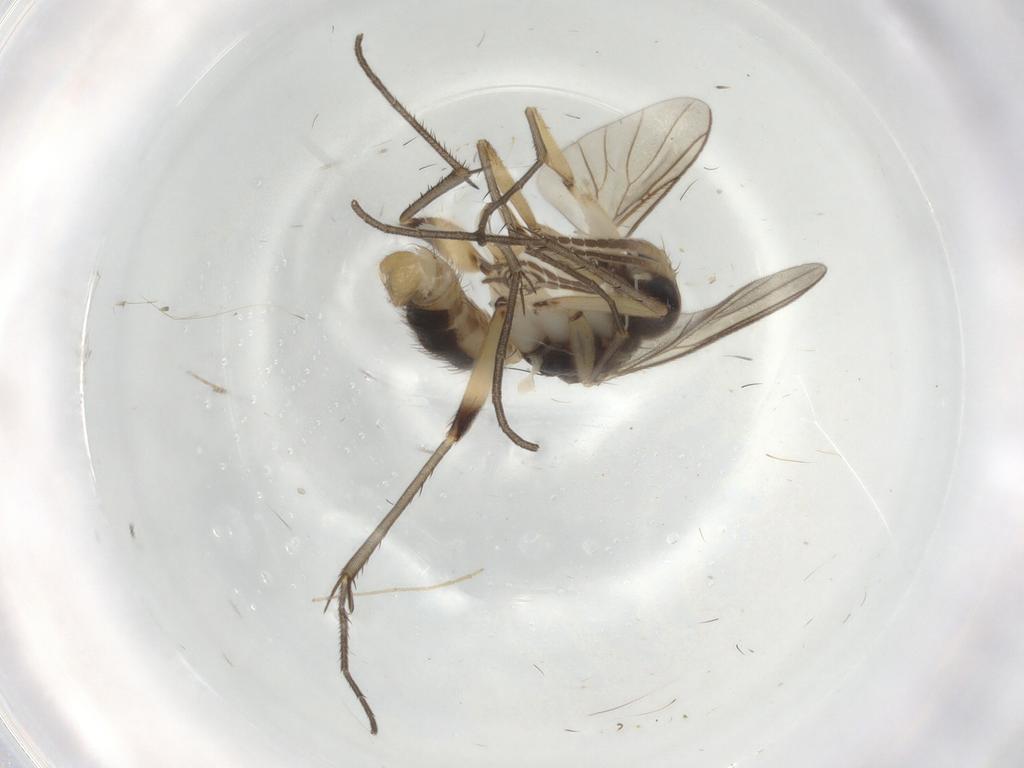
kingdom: Animalia
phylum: Arthropoda
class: Insecta
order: Diptera
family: Mycetophilidae
